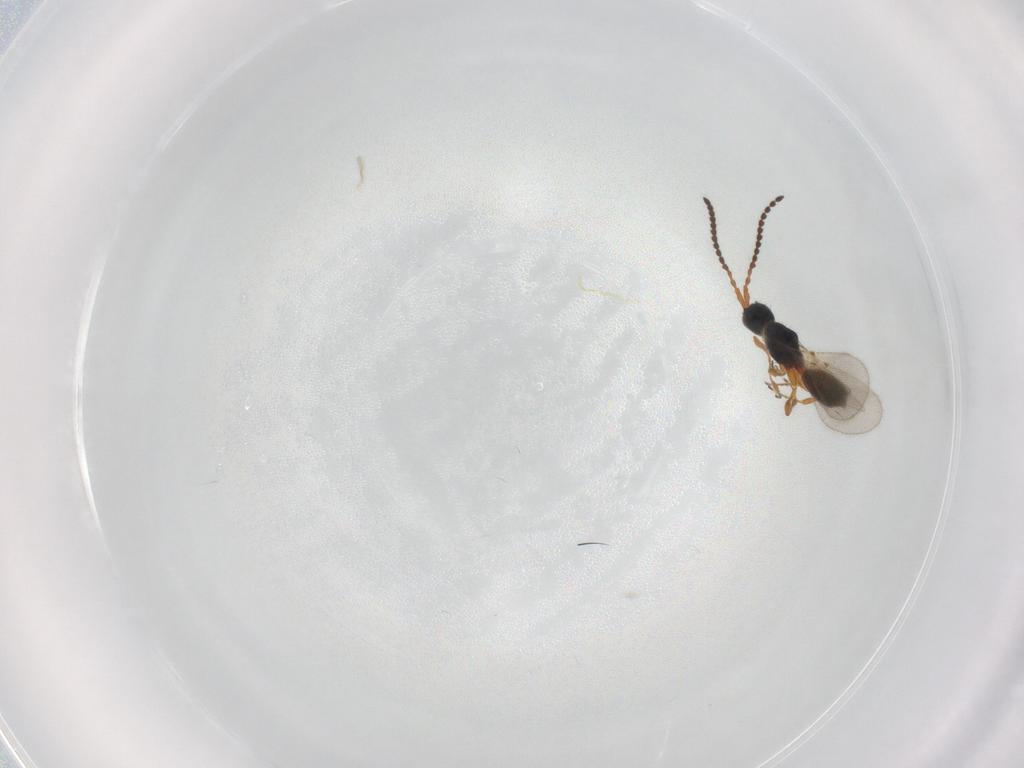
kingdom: Animalia
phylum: Arthropoda
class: Insecta
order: Hymenoptera
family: Diapriidae
